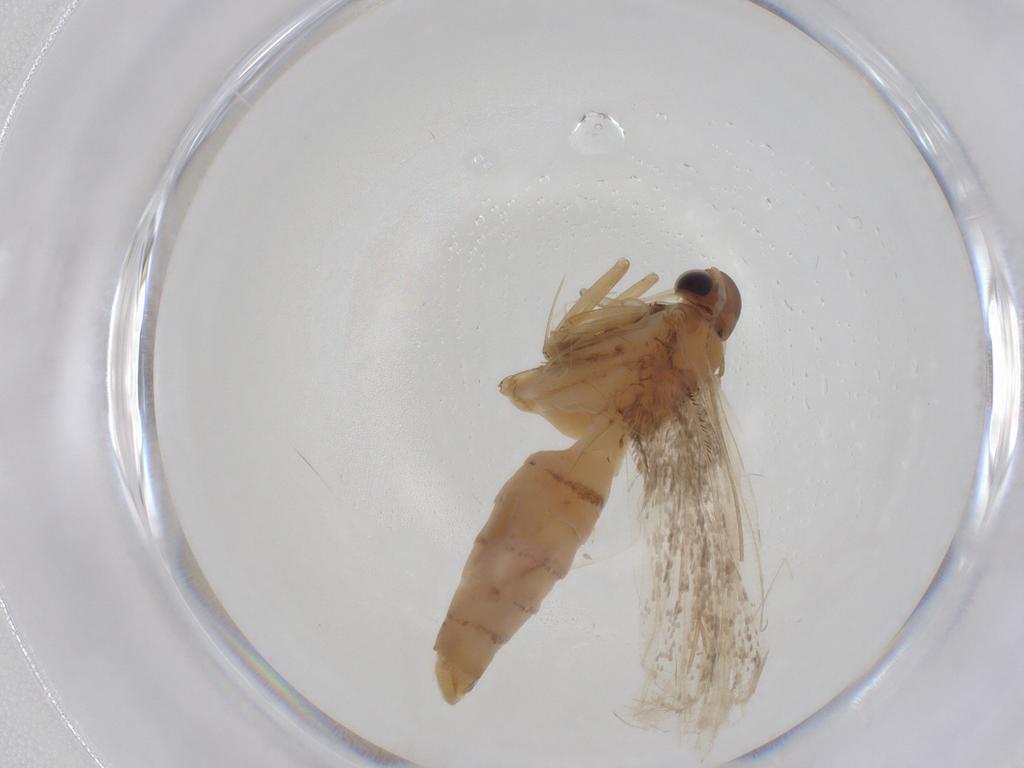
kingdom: Animalia
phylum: Arthropoda
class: Insecta
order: Lepidoptera
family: Gelechiidae
